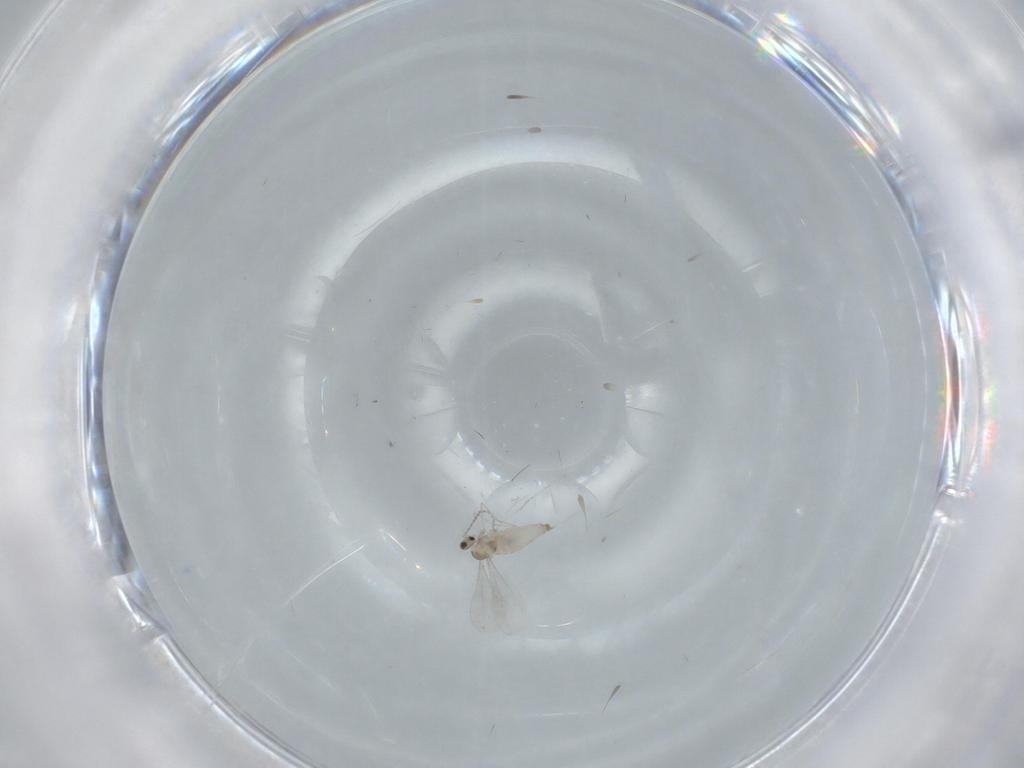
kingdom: Animalia
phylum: Arthropoda
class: Insecta
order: Diptera
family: Cecidomyiidae
